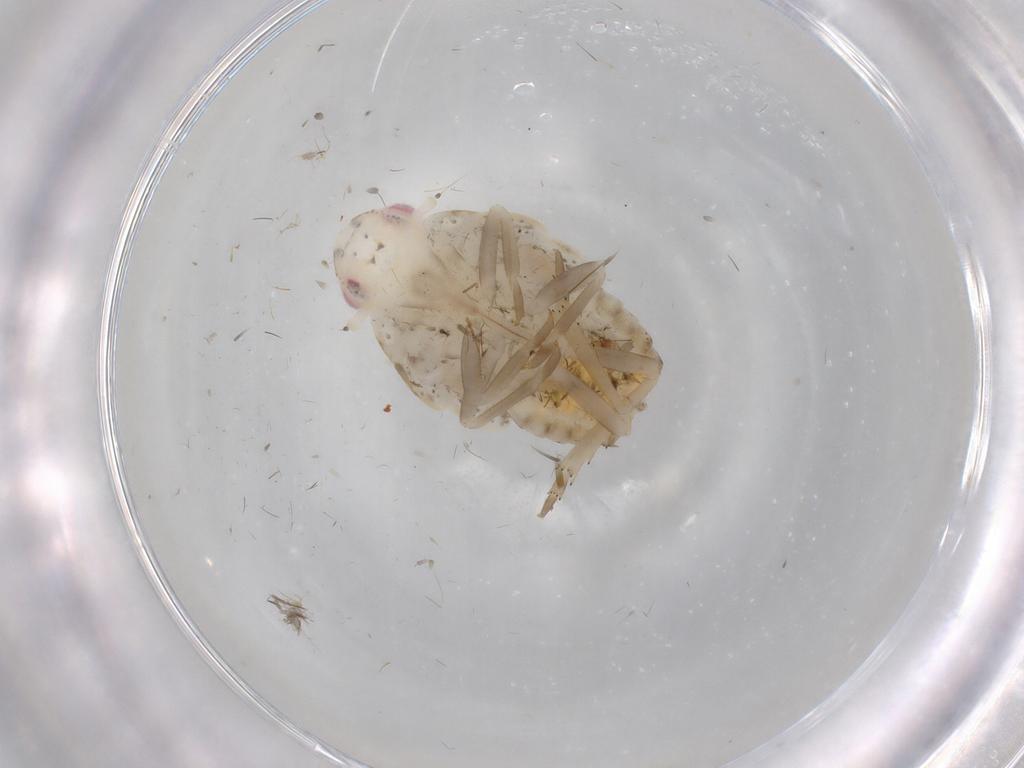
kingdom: Animalia
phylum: Arthropoda
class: Insecta
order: Hemiptera
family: Flatidae
